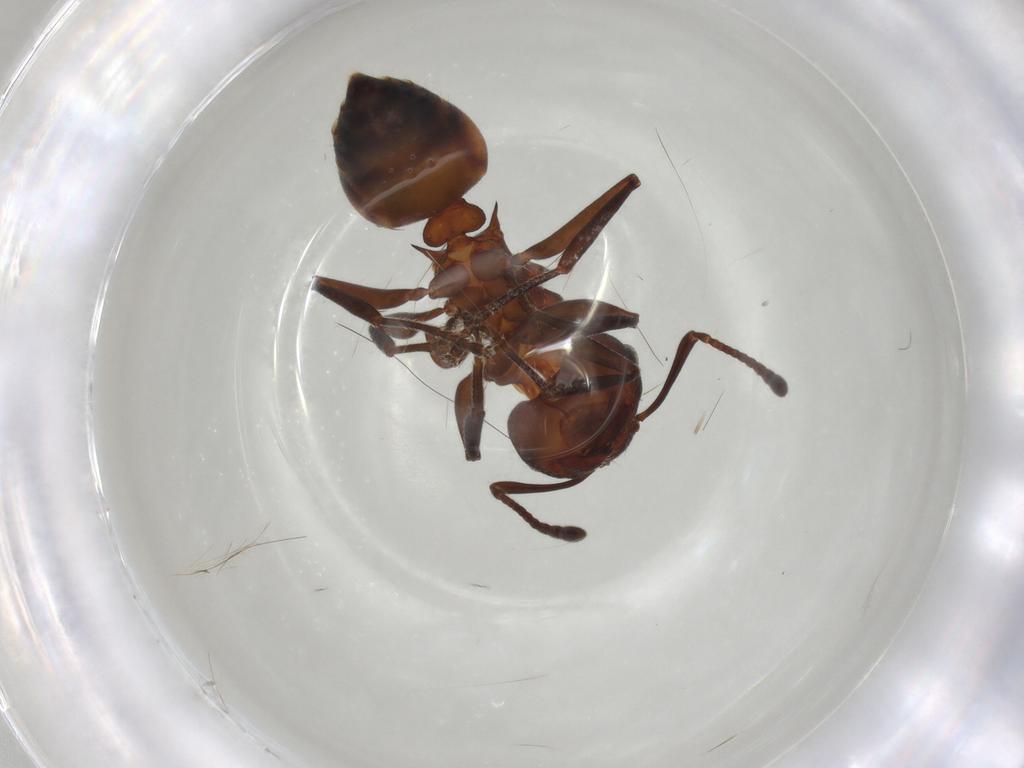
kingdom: Animalia
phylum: Arthropoda
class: Insecta
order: Hymenoptera
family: Formicidae
